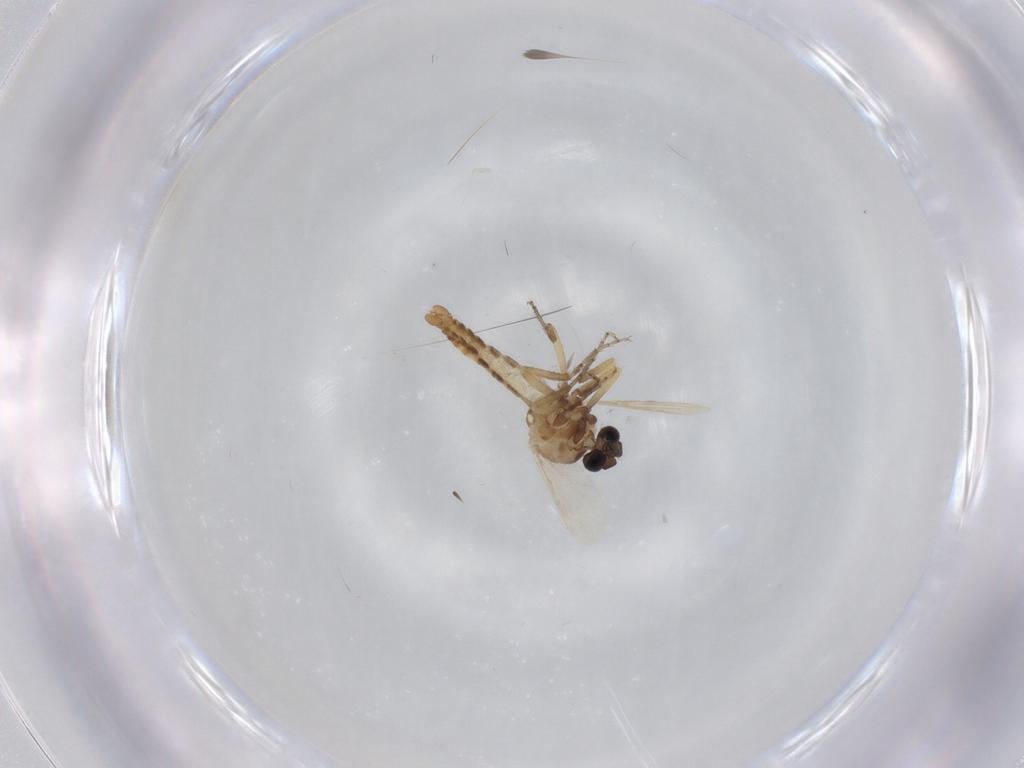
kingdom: Animalia
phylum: Arthropoda
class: Insecta
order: Diptera
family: Ceratopogonidae
